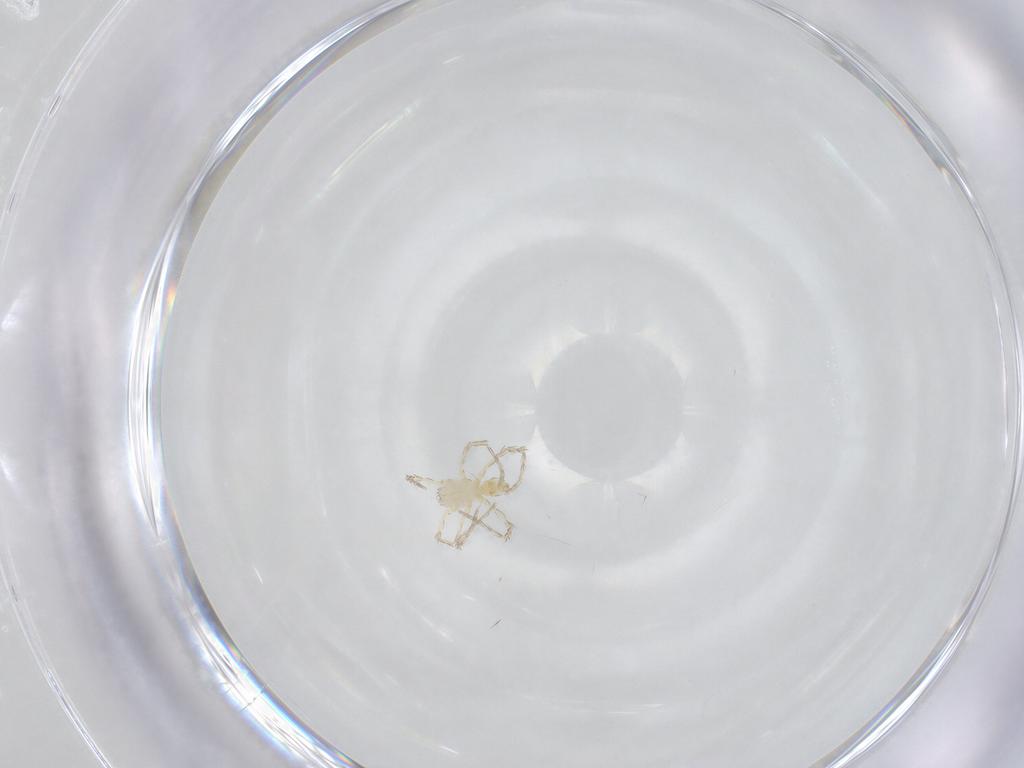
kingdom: Animalia
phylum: Arthropoda
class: Arachnida
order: Trombidiformes
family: Erythraeidae
